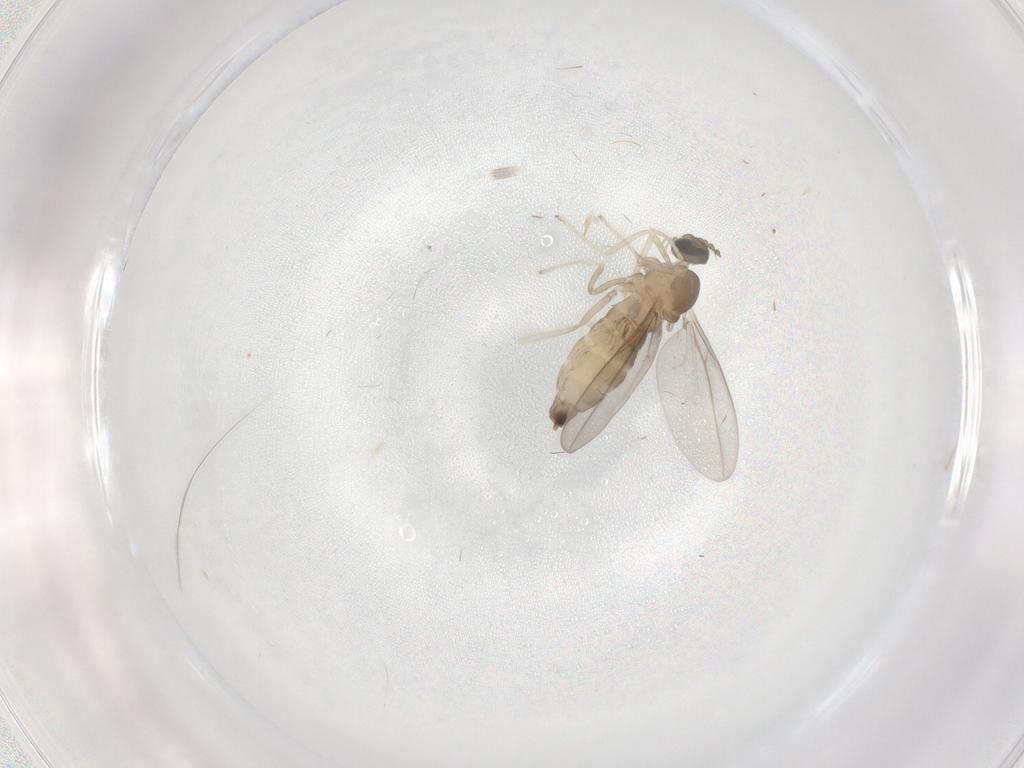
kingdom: Animalia
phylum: Arthropoda
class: Insecta
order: Diptera
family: Cecidomyiidae
